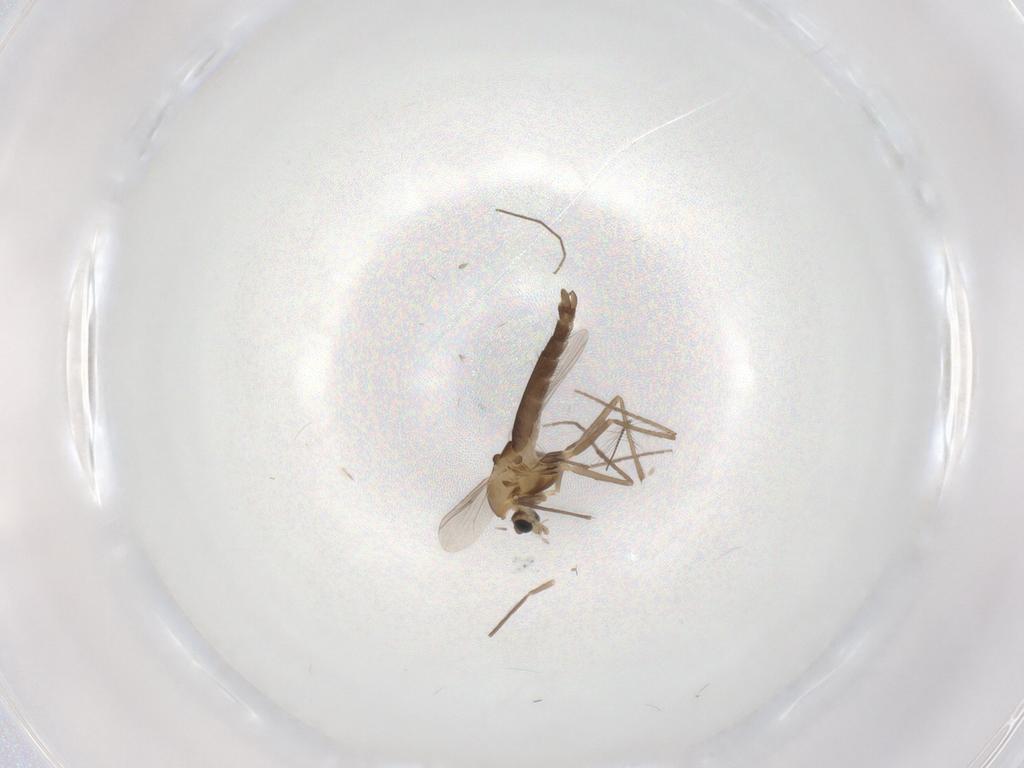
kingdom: Animalia
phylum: Arthropoda
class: Insecta
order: Diptera
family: Chironomidae
